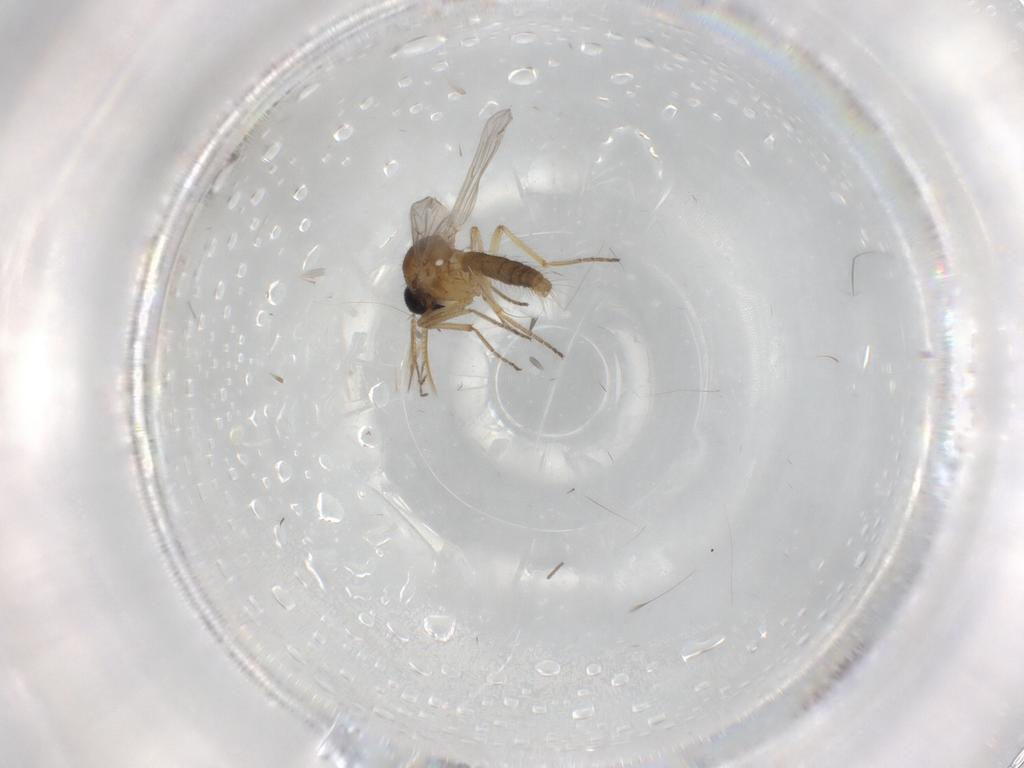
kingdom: Animalia
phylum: Arthropoda
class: Insecta
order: Diptera
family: Ceratopogonidae
